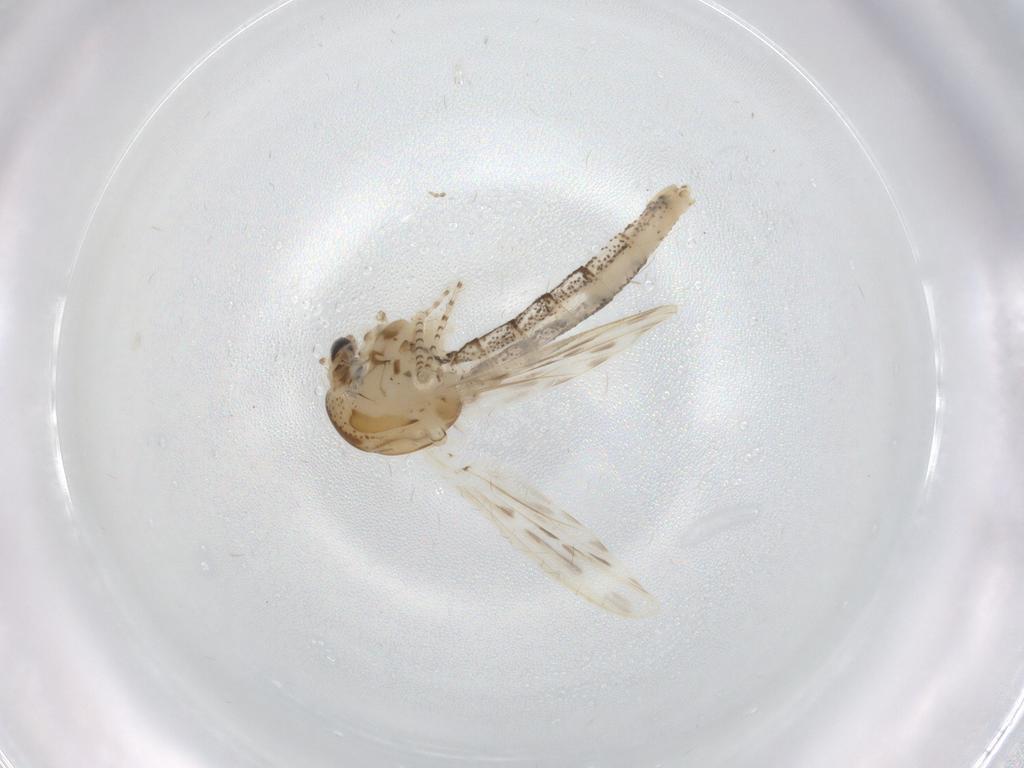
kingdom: Animalia
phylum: Arthropoda
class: Insecta
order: Diptera
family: Chaoboridae
